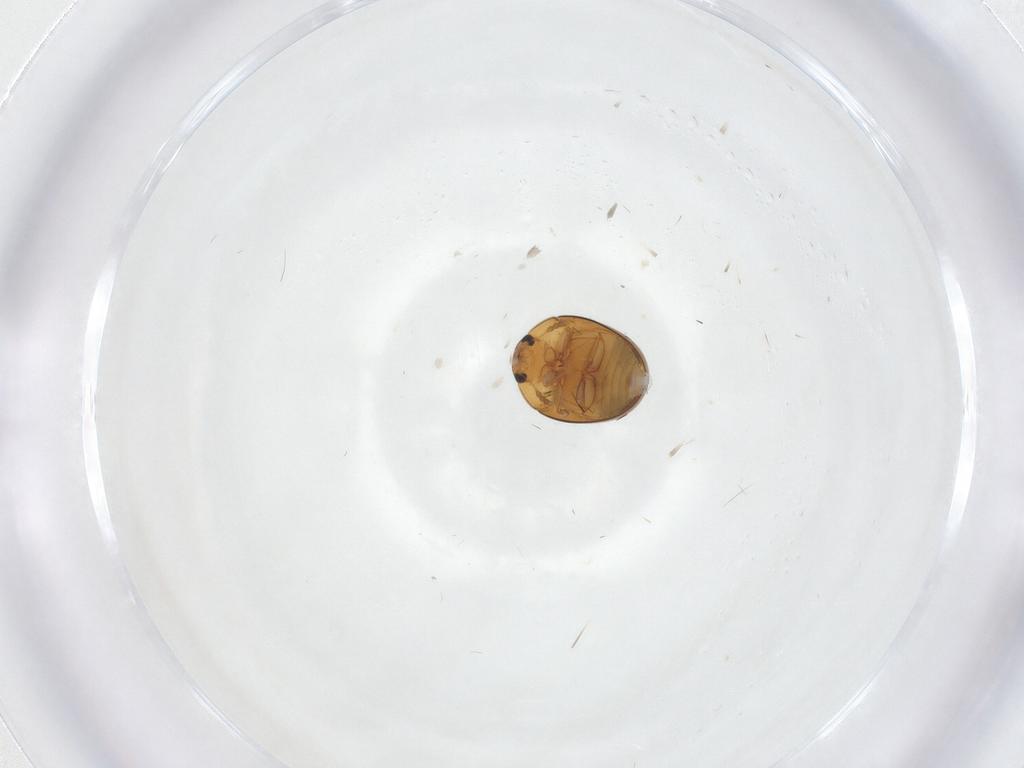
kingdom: Animalia
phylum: Arthropoda
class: Insecta
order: Coleoptera
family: Phalacridae
